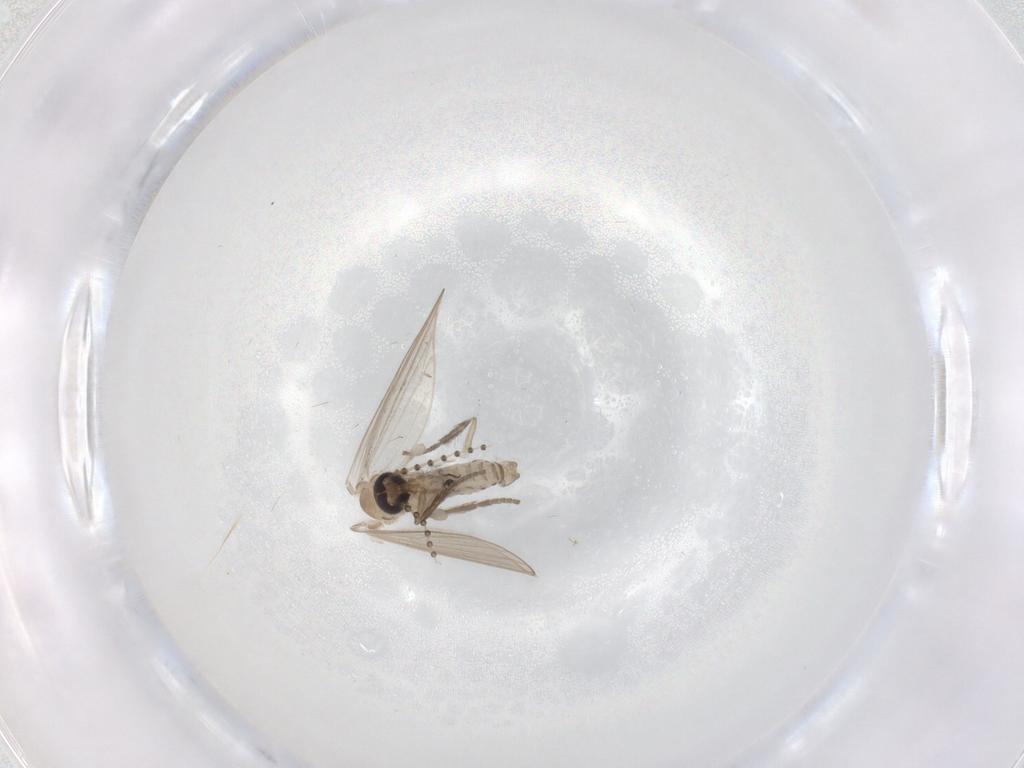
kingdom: Animalia
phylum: Arthropoda
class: Insecta
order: Diptera
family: Psychodidae
